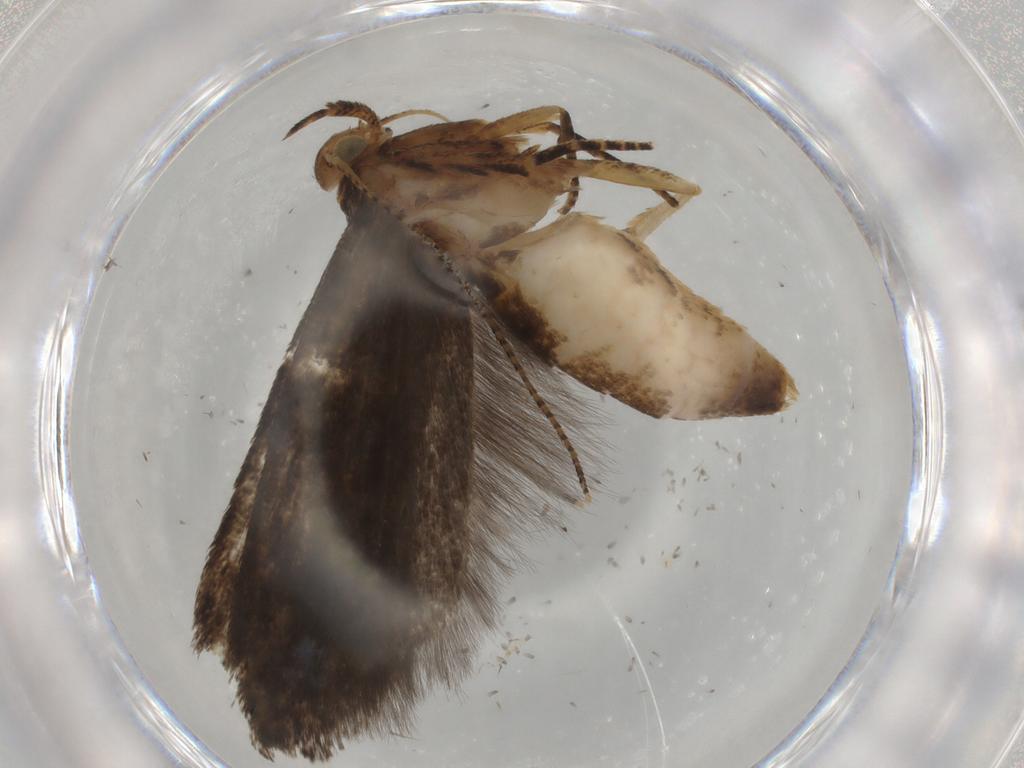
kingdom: Animalia
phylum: Arthropoda
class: Insecta
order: Lepidoptera
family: Gelechiidae
